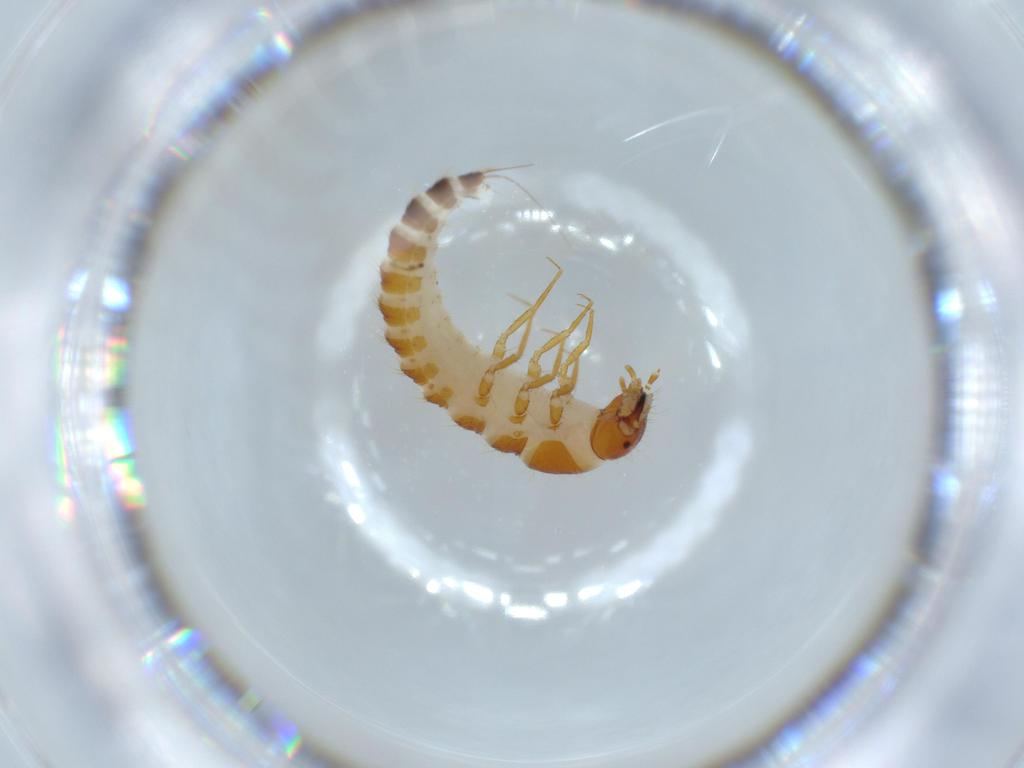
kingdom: Animalia
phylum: Arthropoda
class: Insecta
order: Coleoptera
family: Meloidae
